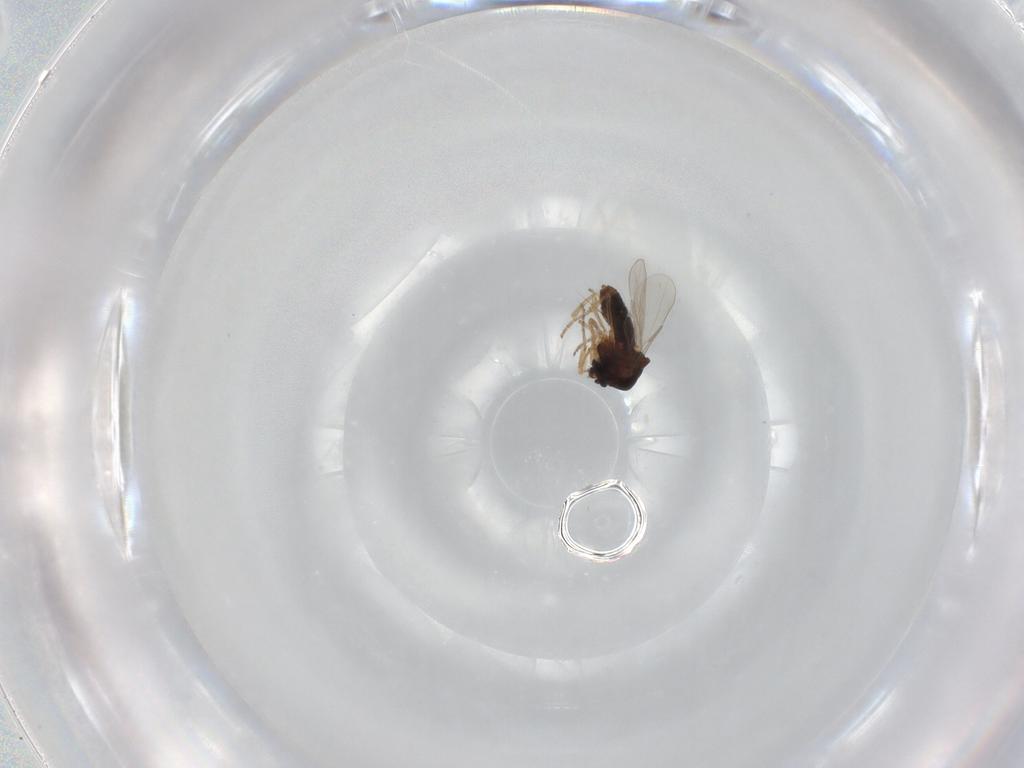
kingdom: Animalia
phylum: Arthropoda
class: Insecta
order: Diptera
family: Ceratopogonidae
